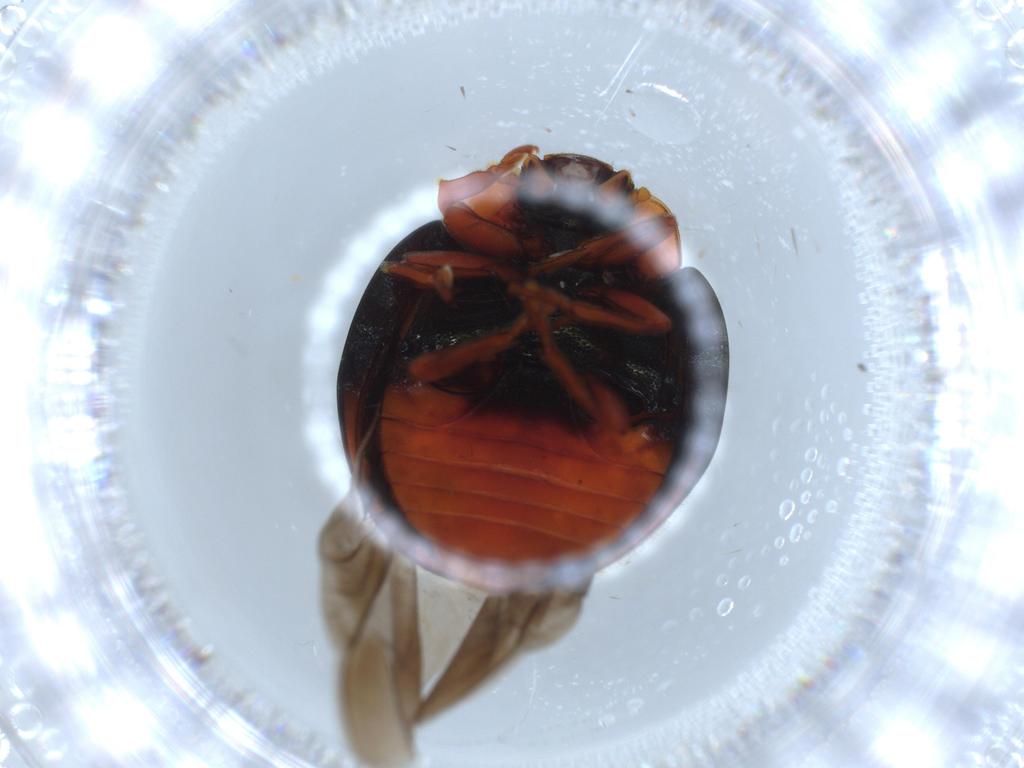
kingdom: Animalia
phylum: Arthropoda
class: Insecta
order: Coleoptera
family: Coccinellidae
